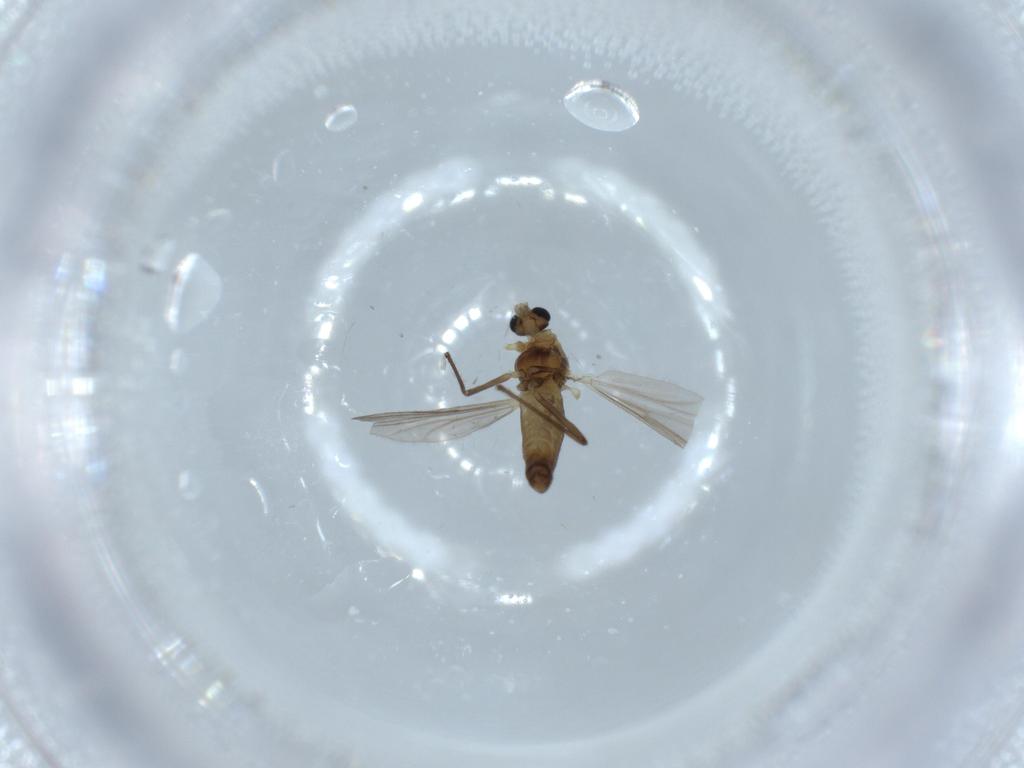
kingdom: Animalia
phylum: Arthropoda
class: Insecta
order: Diptera
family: Chironomidae
